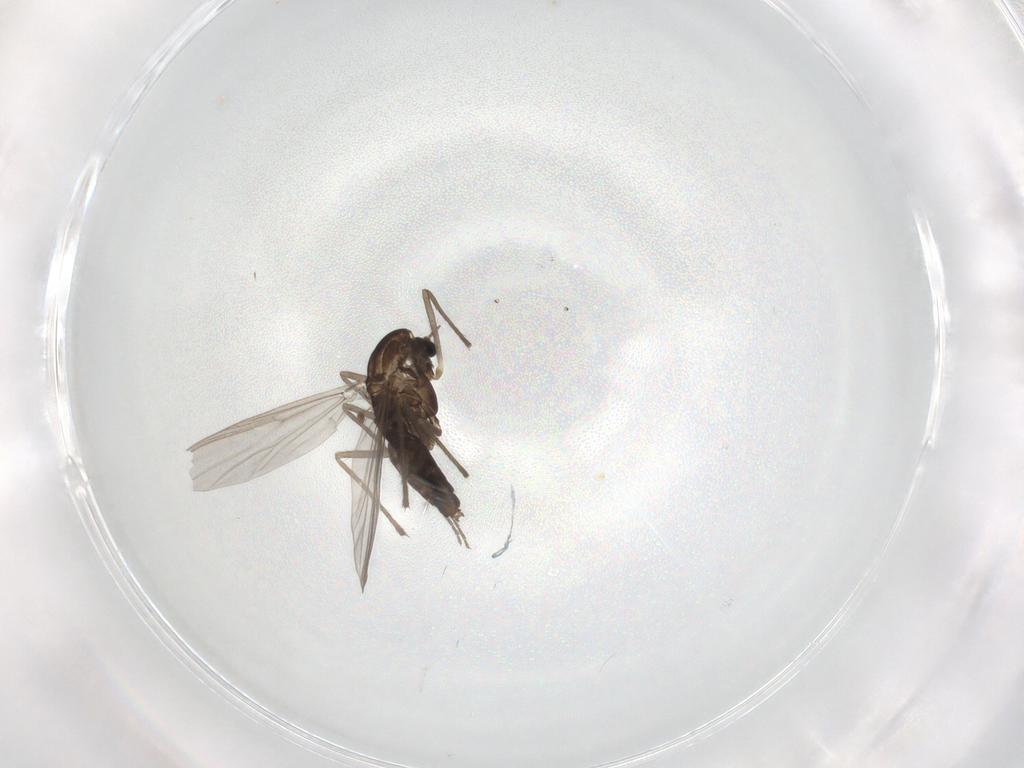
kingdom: Animalia
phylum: Arthropoda
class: Insecta
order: Diptera
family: Chironomidae
